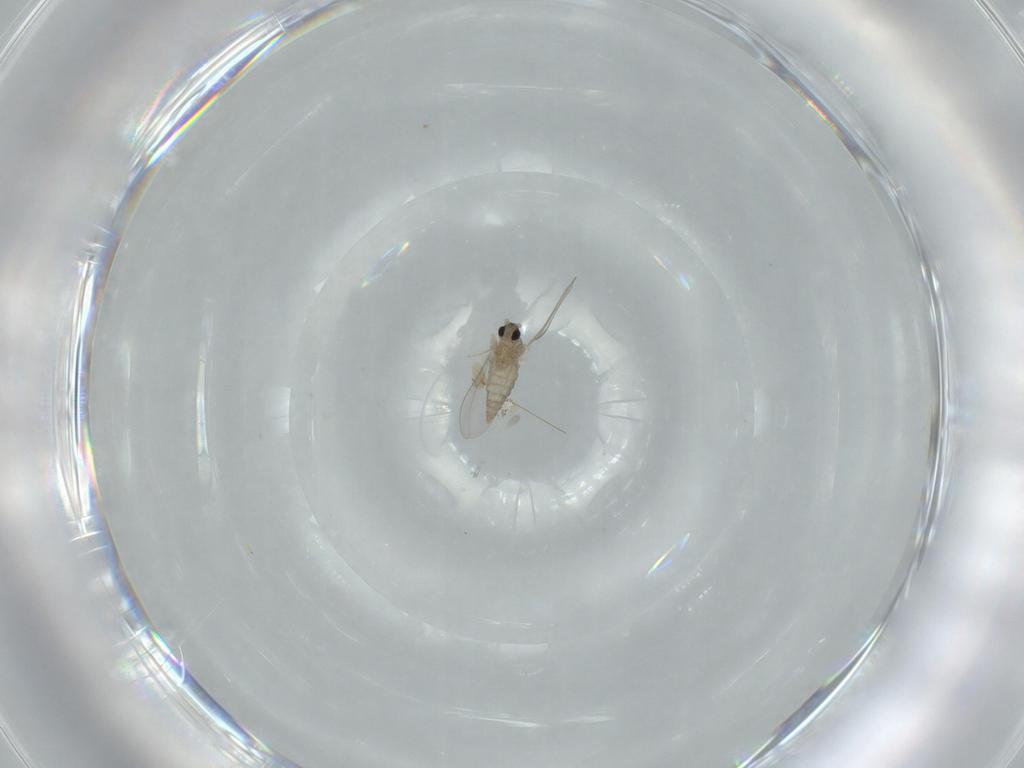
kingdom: Animalia
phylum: Arthropoda
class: Insecta
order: Diptera
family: Cecidomyiidae
